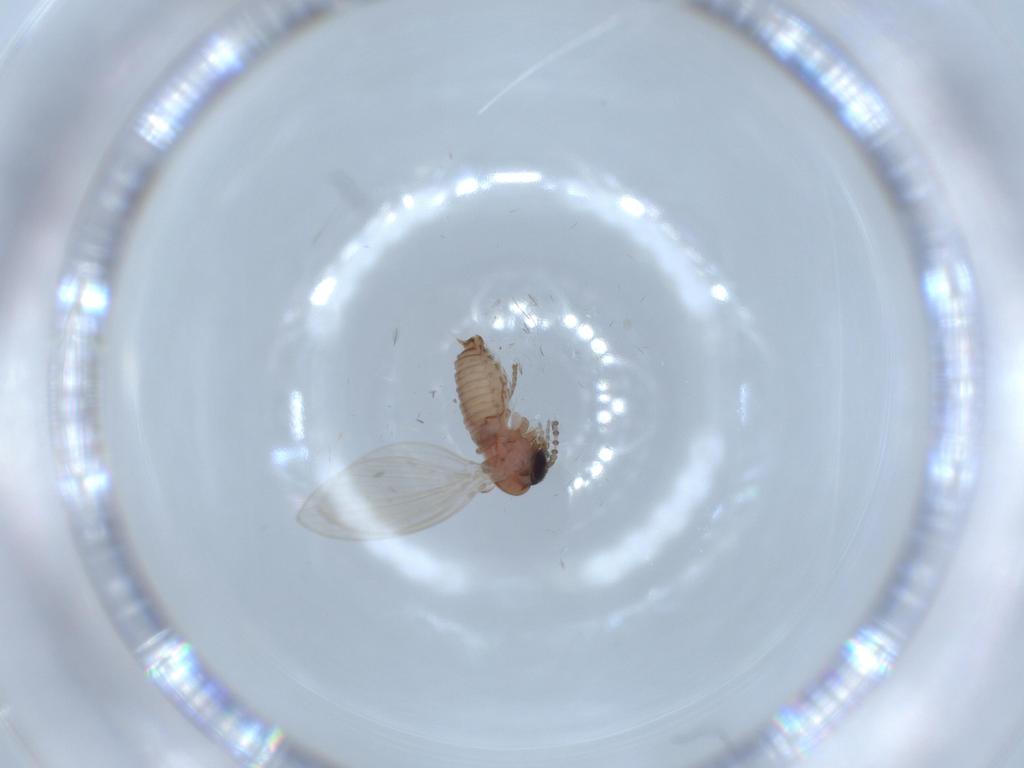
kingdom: Animalia
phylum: Arthropoda
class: Insecta
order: Diptera
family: Psychodidae
